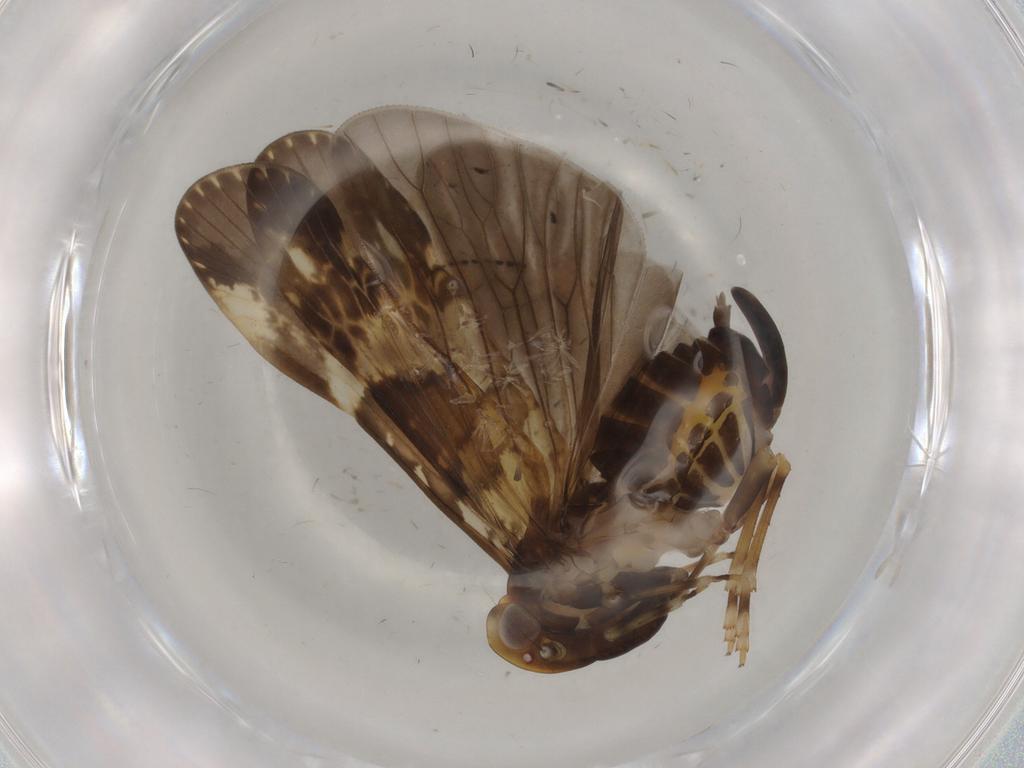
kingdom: Animalia
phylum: Arthropoda
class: Insecta
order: Hemiptera
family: Cixiidae
